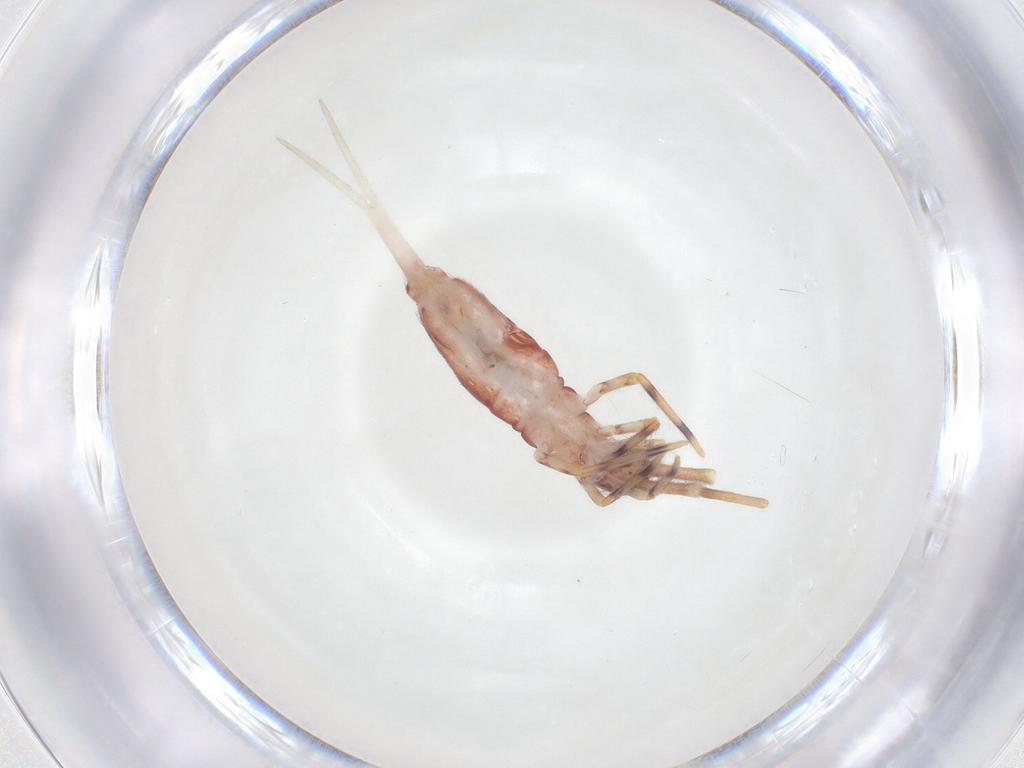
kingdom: Animalia
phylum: Arthropoda
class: Collembola
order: Entomobryomorpha
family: Entomobryidae
